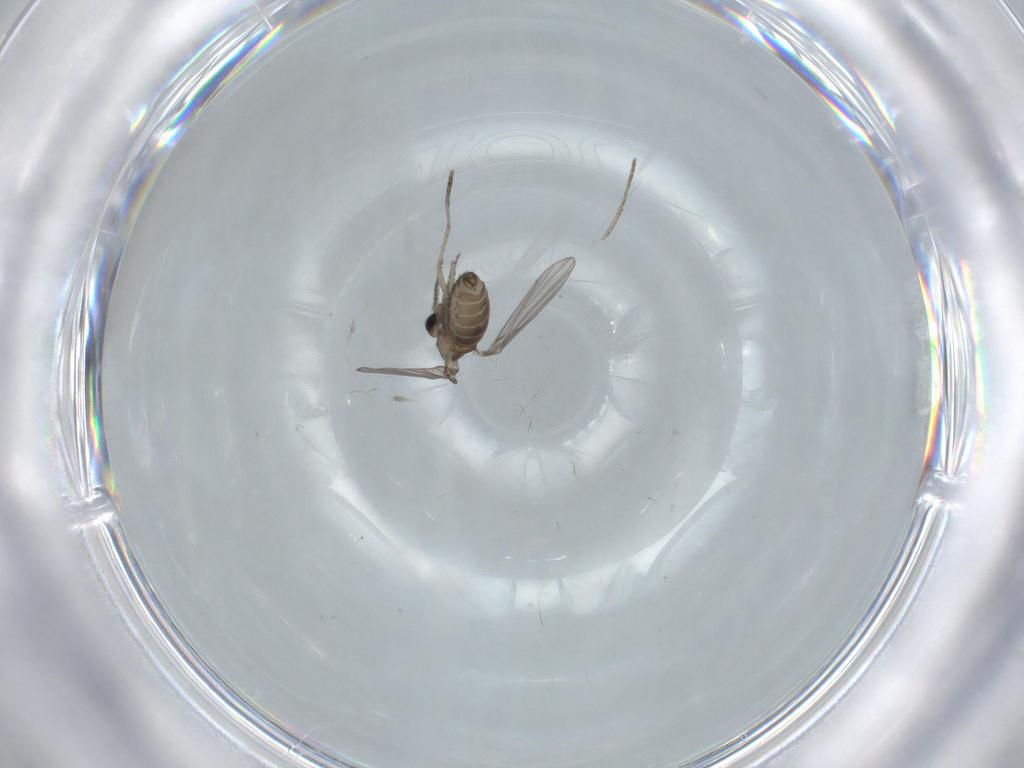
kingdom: Animalia
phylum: Arthropoda
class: Insecta
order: Diptera
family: Psychodidae
